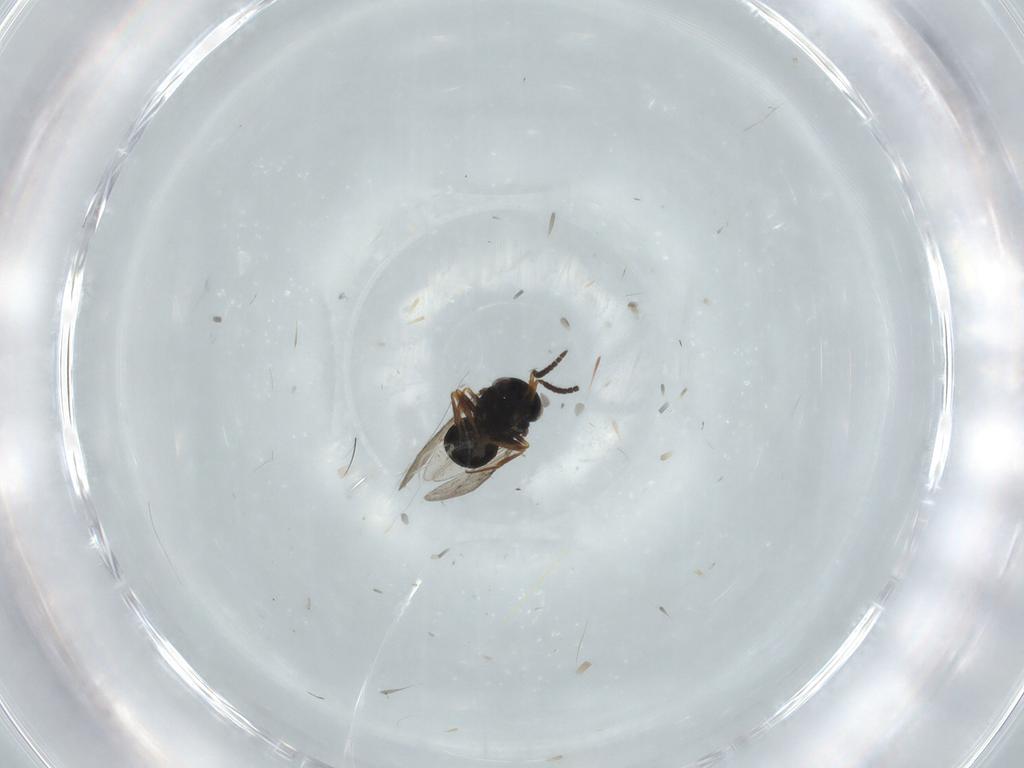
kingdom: Animalia
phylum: Arthropoda
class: Insecta
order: Hymenoptera
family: Scelionidae
